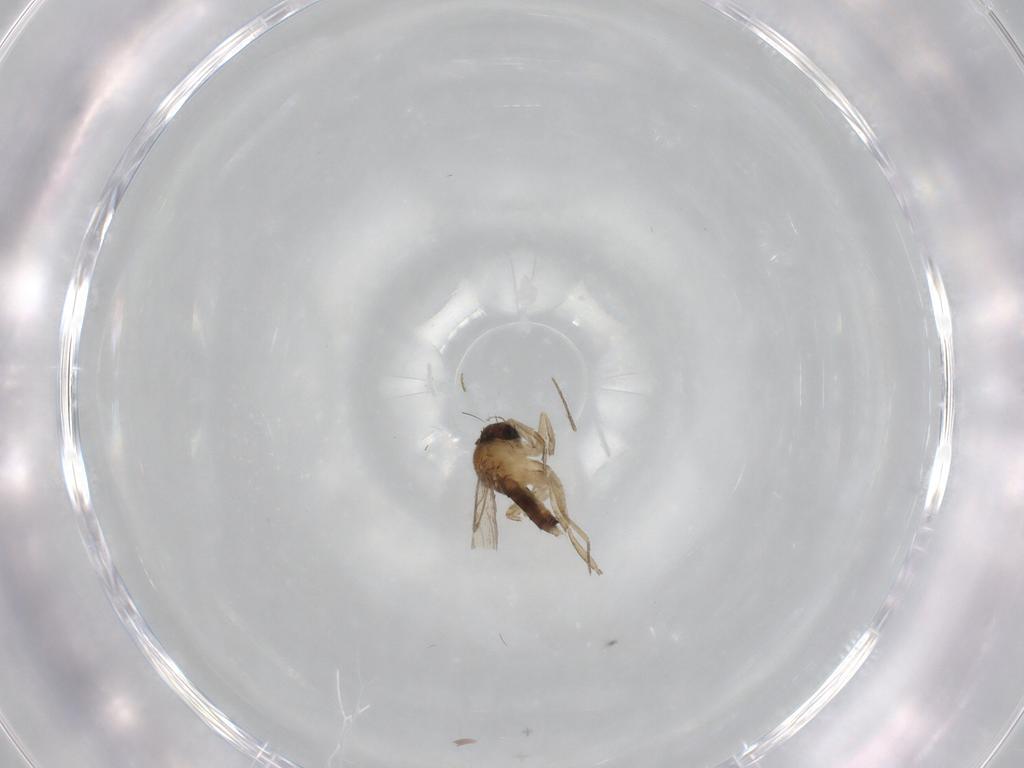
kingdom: Animalia
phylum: Arthropoda
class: Insecta
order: Diptera
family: Phoridae
